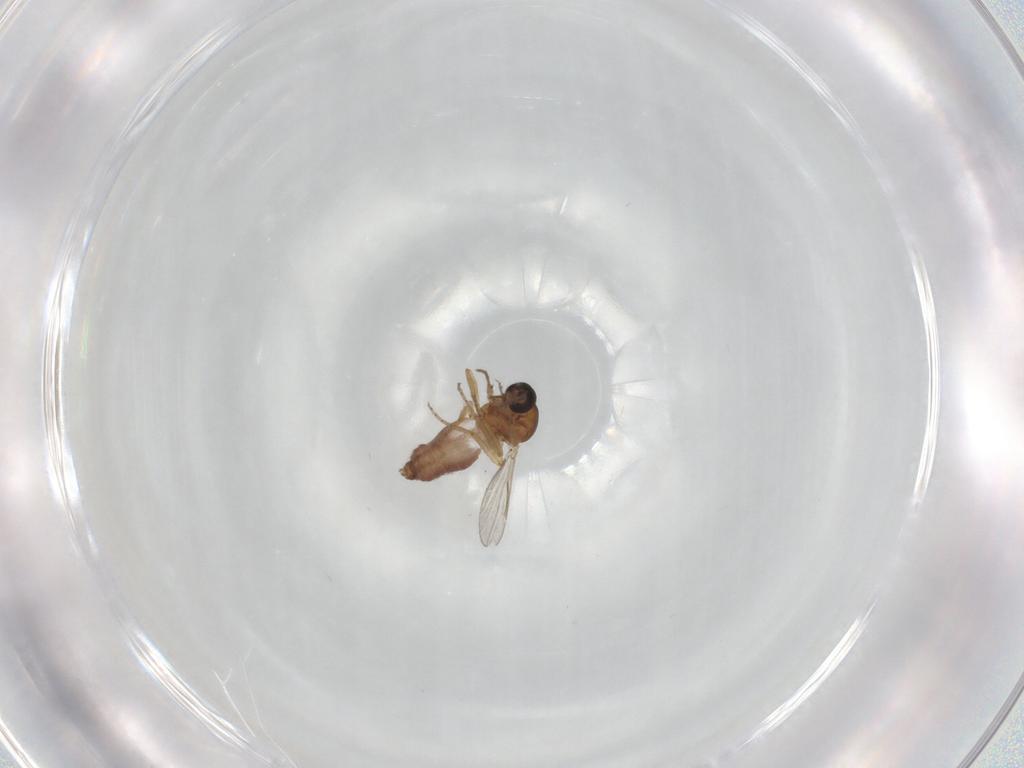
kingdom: Animalia
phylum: Arthropoda
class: Insecta
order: Diptera
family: Ceratopogonidae
